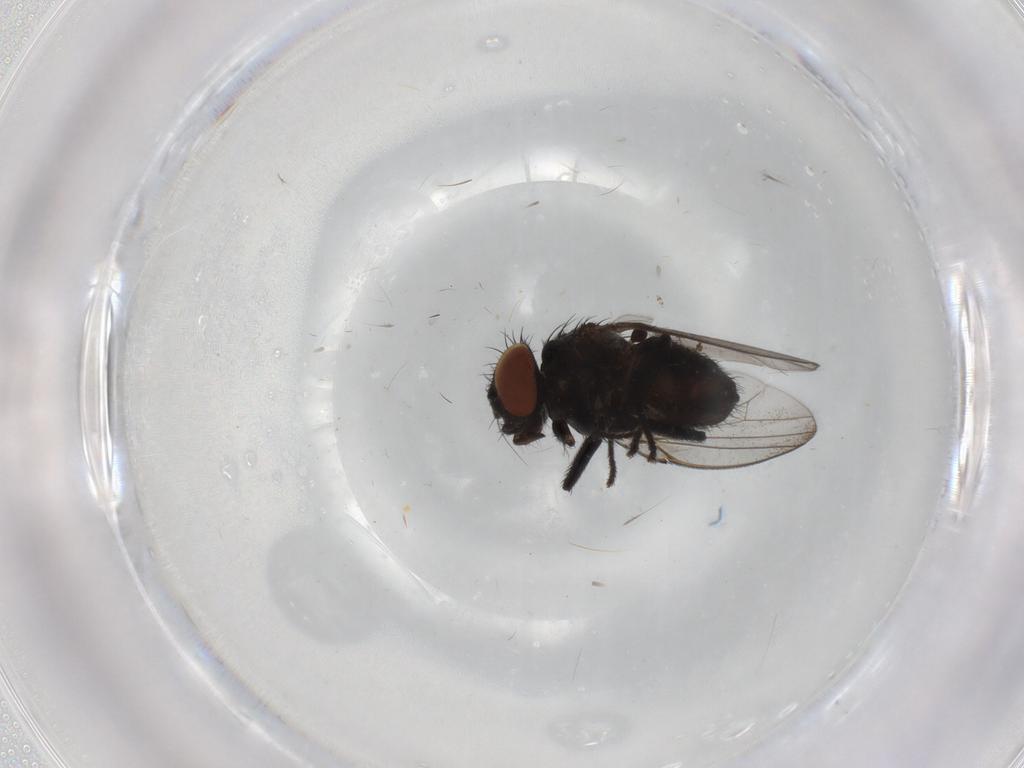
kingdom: Animalia
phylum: Arthropoda
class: Insecta
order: Diptera
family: Milichiidae
